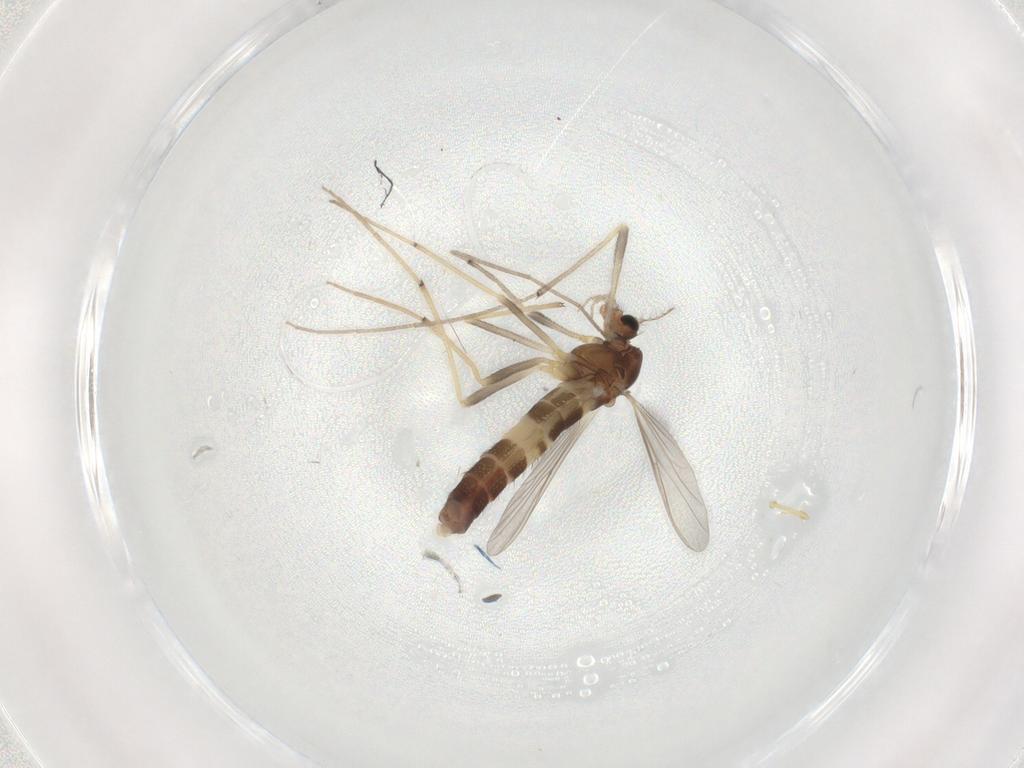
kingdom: Animalia
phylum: Arthropoda
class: Insecta
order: Diptera
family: Chironomidae
